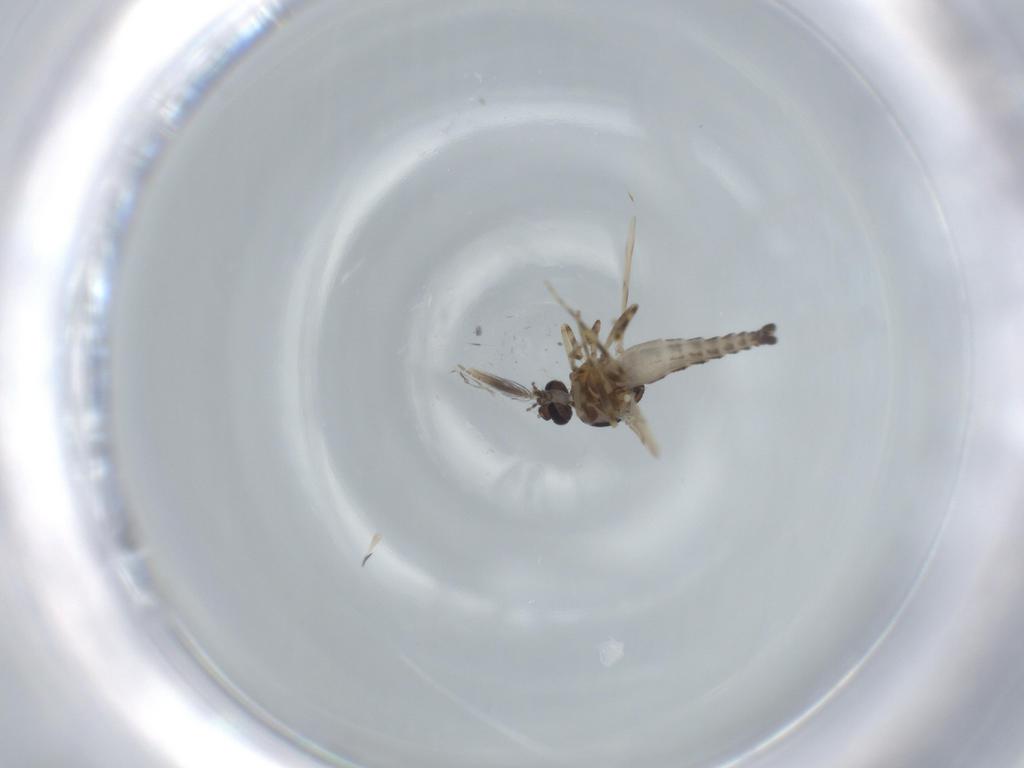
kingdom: Animalia
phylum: Arthropoda
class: Insecta
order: Diptera
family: Ceratopogonidae
